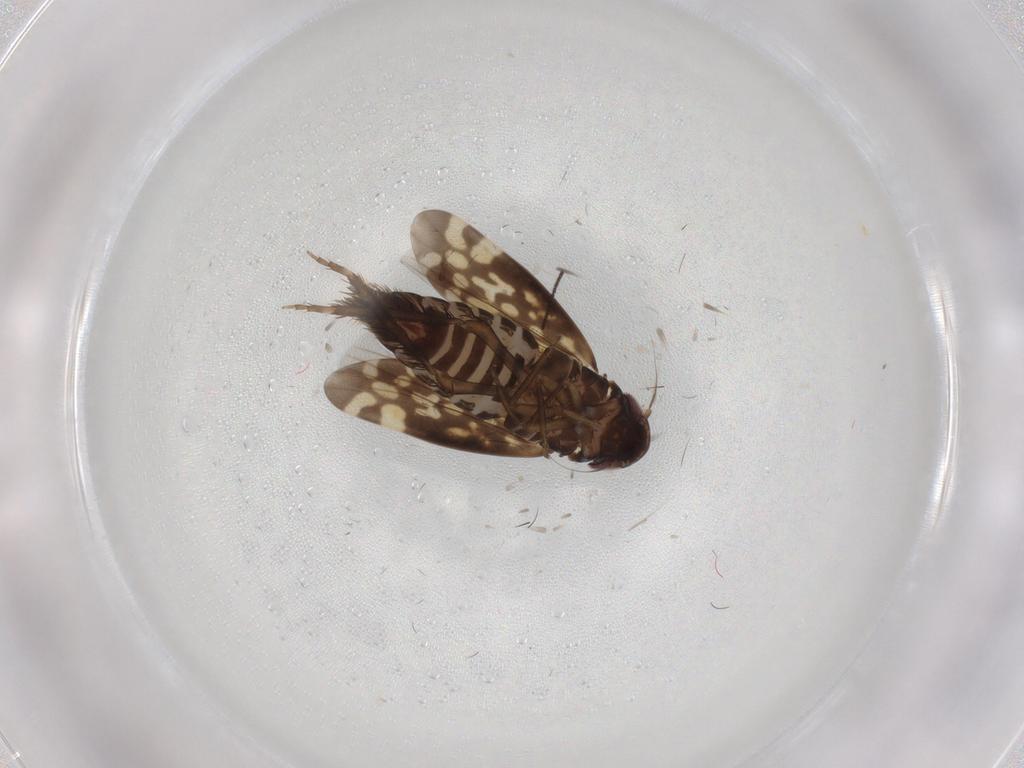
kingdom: Animalia
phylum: Arthropoda
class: Insecta
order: Hemiptera
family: Cicadellidae
